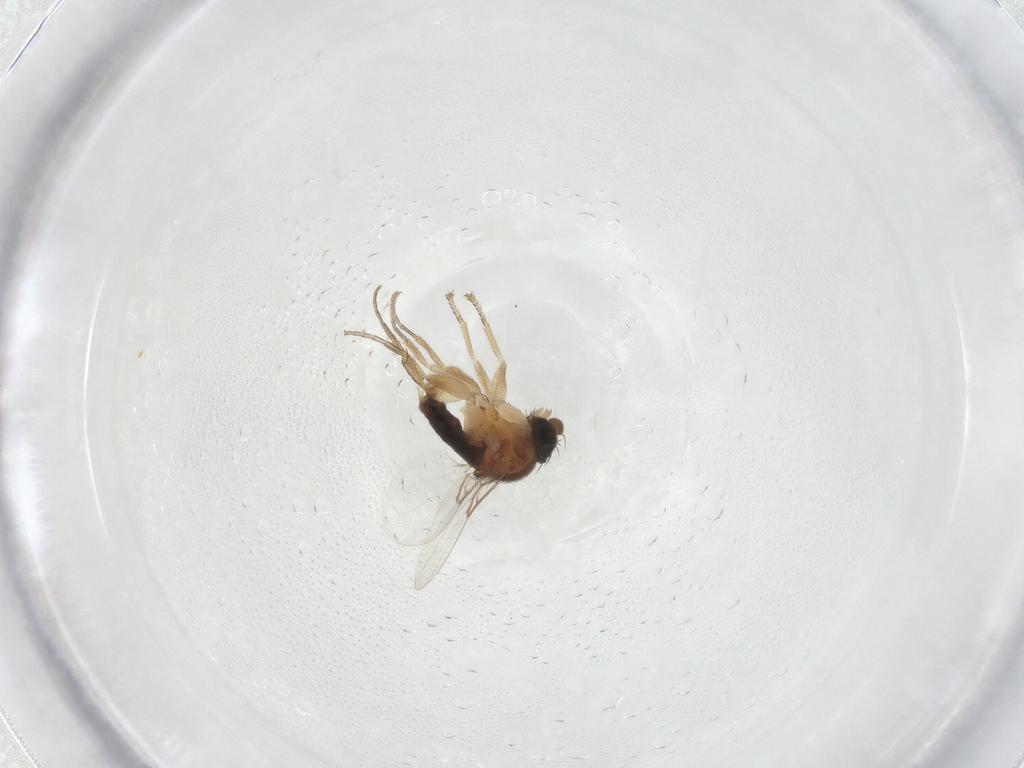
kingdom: Animalia
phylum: Arthropoda
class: Insecta
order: Diptera
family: Phoridae
